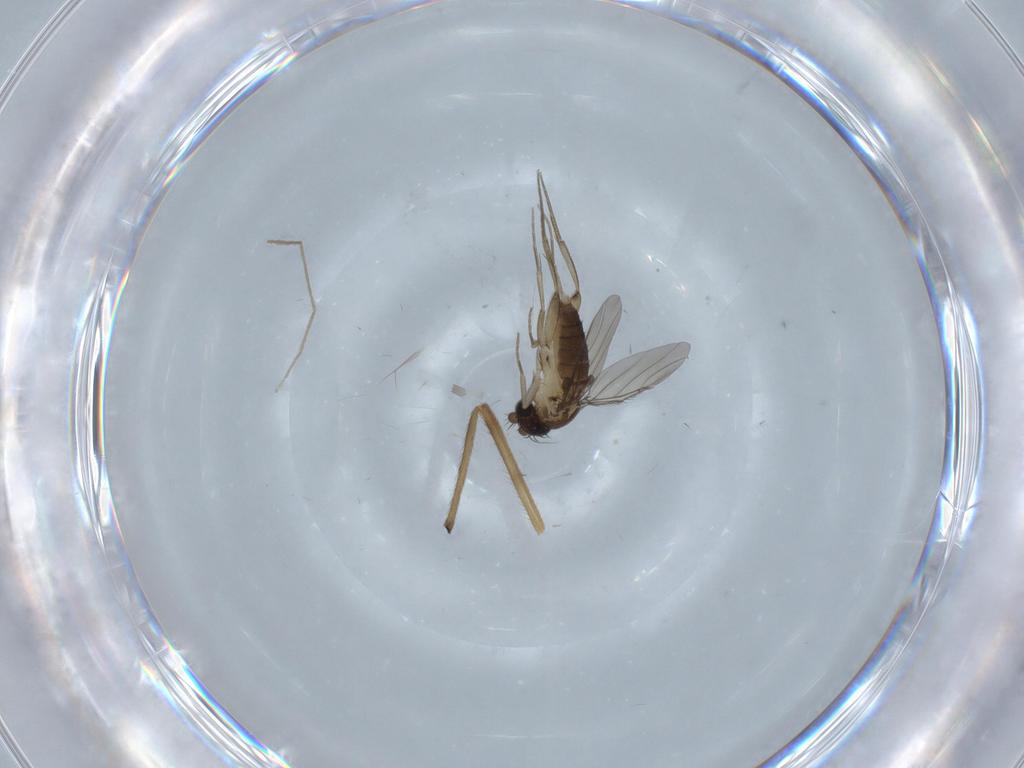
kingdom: Animalia
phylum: Arthropoda
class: Insecta
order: Diptera
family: Phoridae
